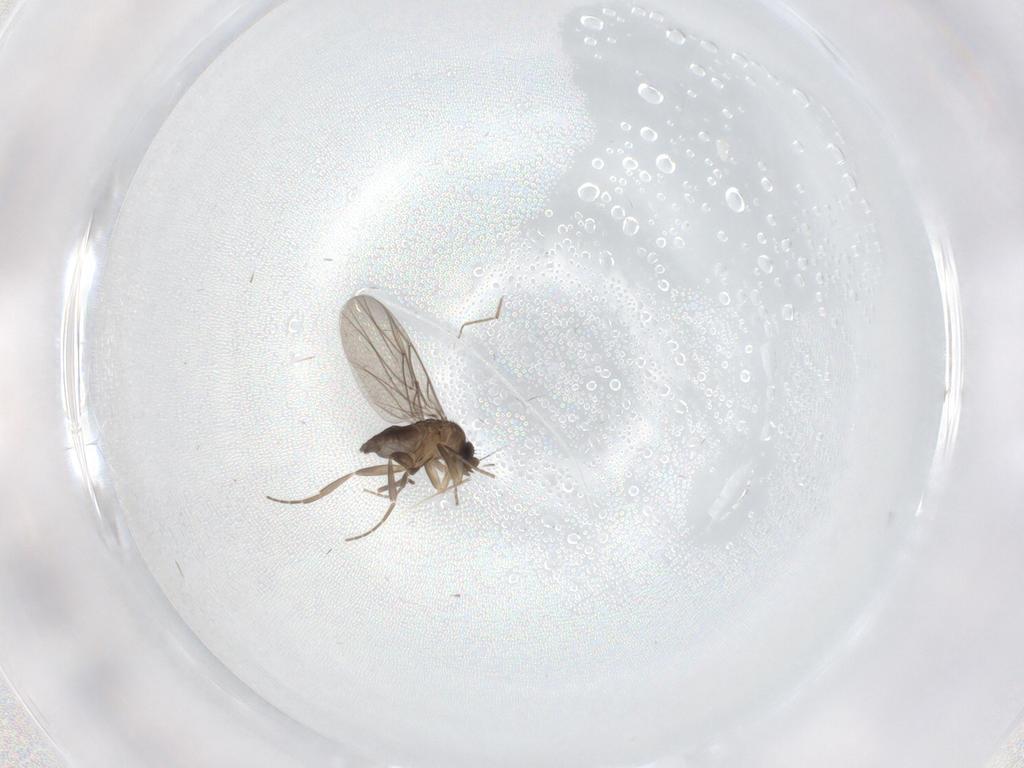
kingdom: Animalia
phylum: Arthropoda
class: Insecta
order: Diptera
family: Chironomidae
